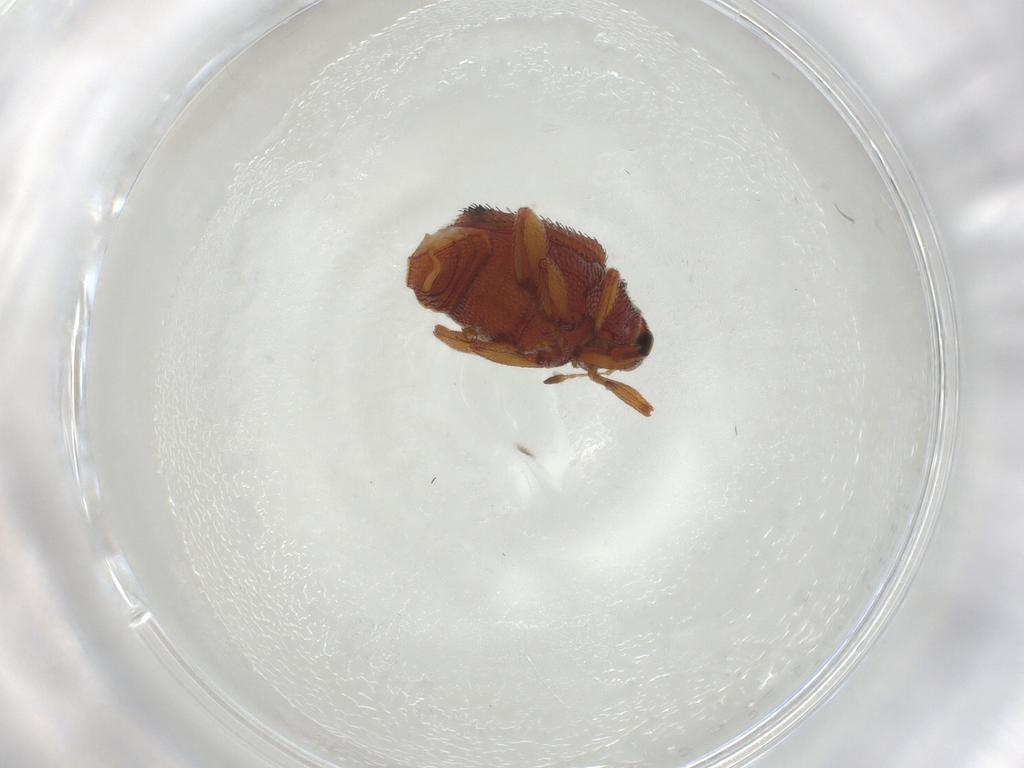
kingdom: Animalia
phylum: Arthropoda
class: Insecta
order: Coleoptera
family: Curculionidae
